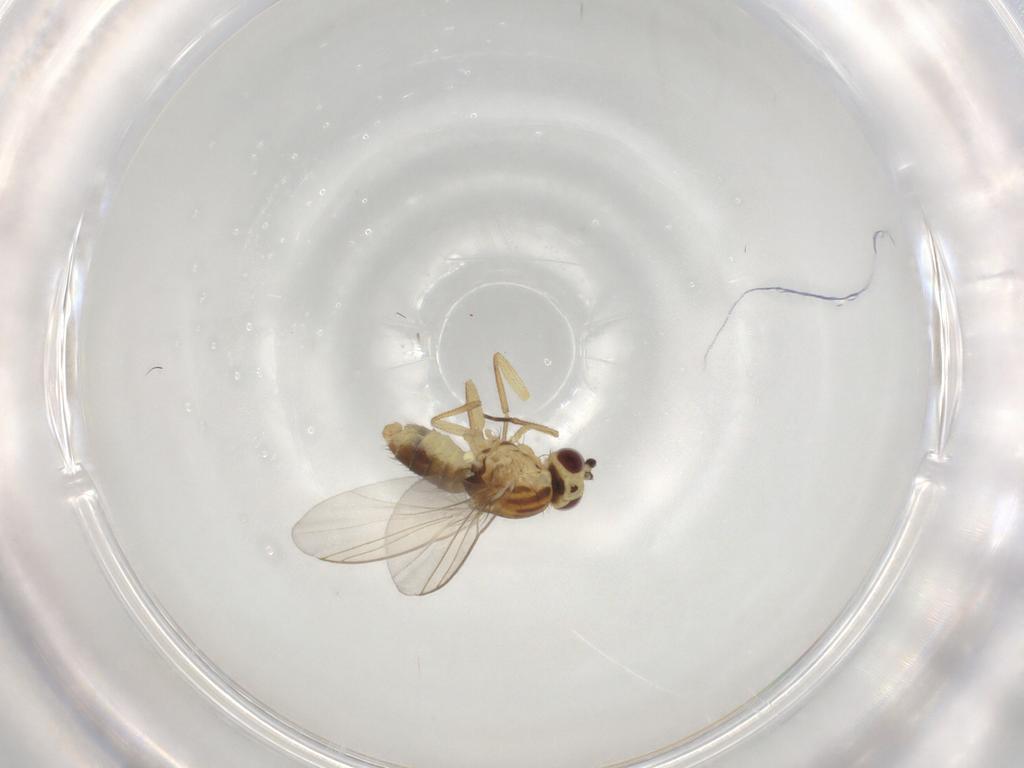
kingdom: Animalia
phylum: Arthropoda
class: Insecta
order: Diptera
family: Agromyzidae
